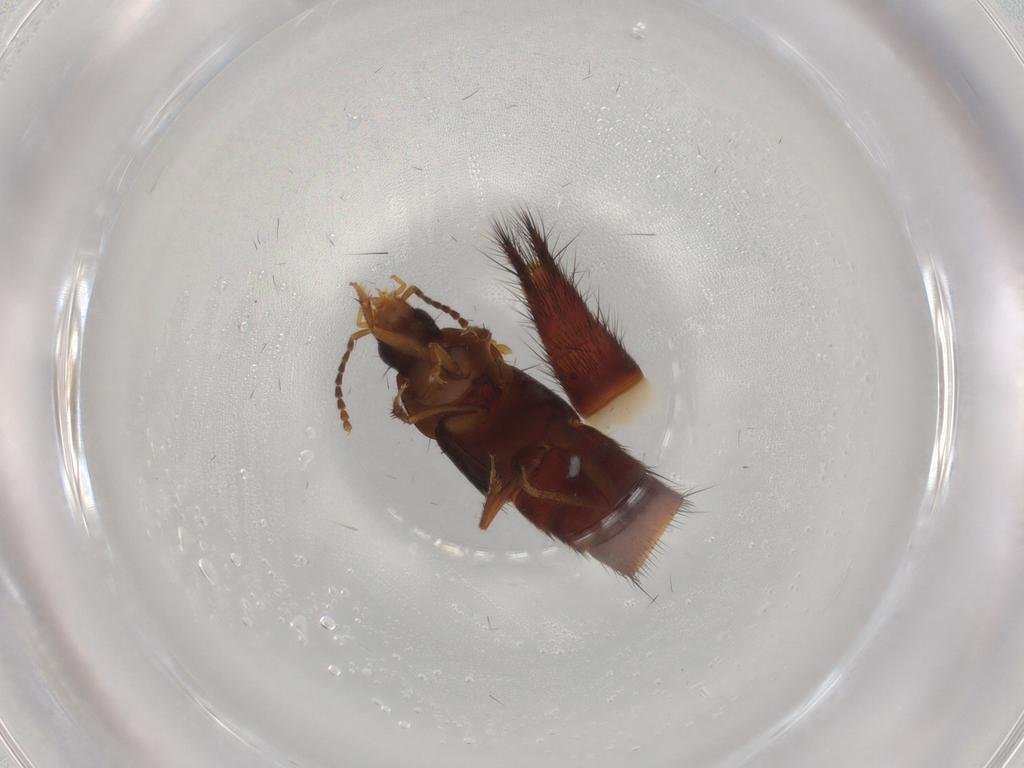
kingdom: Animalia
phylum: Arthropoda
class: Insecta
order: Coleoptera
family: Staphylinidae
